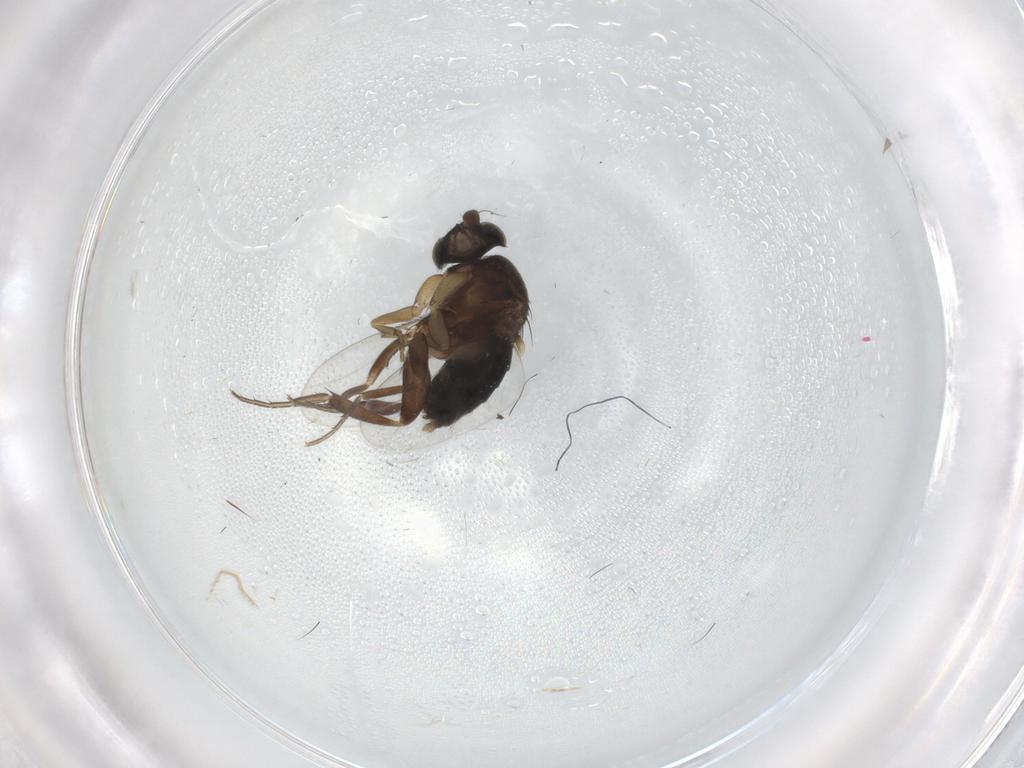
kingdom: Animalia
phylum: Arthropoda
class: Insecta
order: Diptera
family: Phoridae
